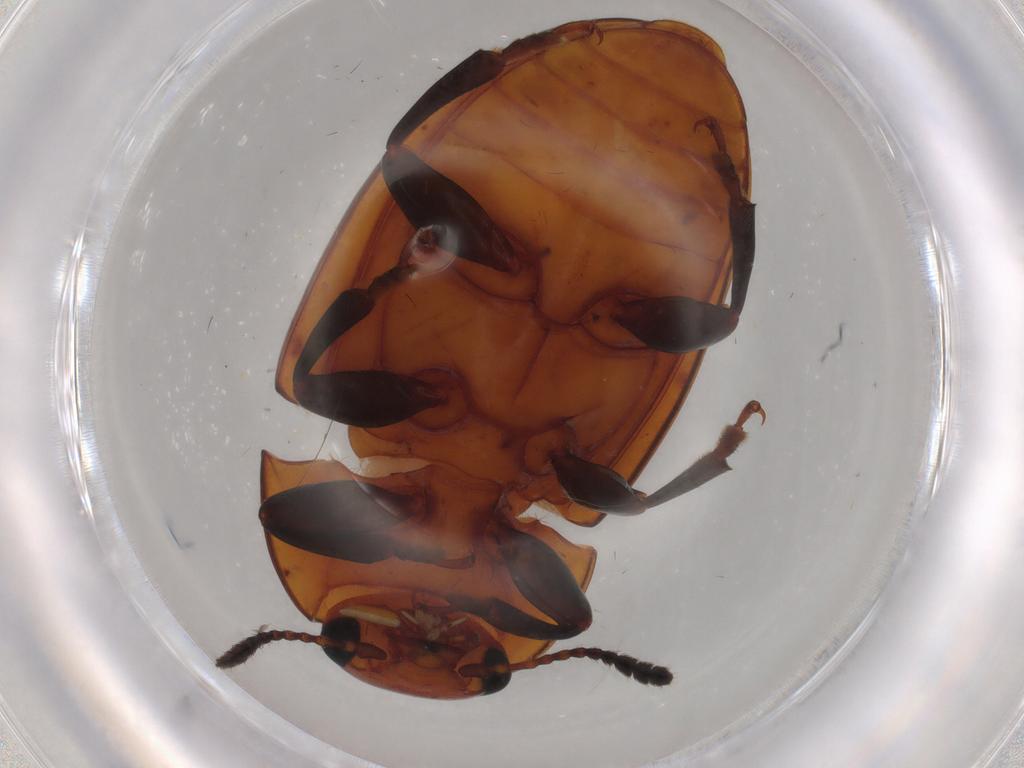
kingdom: Animalia
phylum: Arthropoda
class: Insecta
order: Coleoptera
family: Erotylidae
